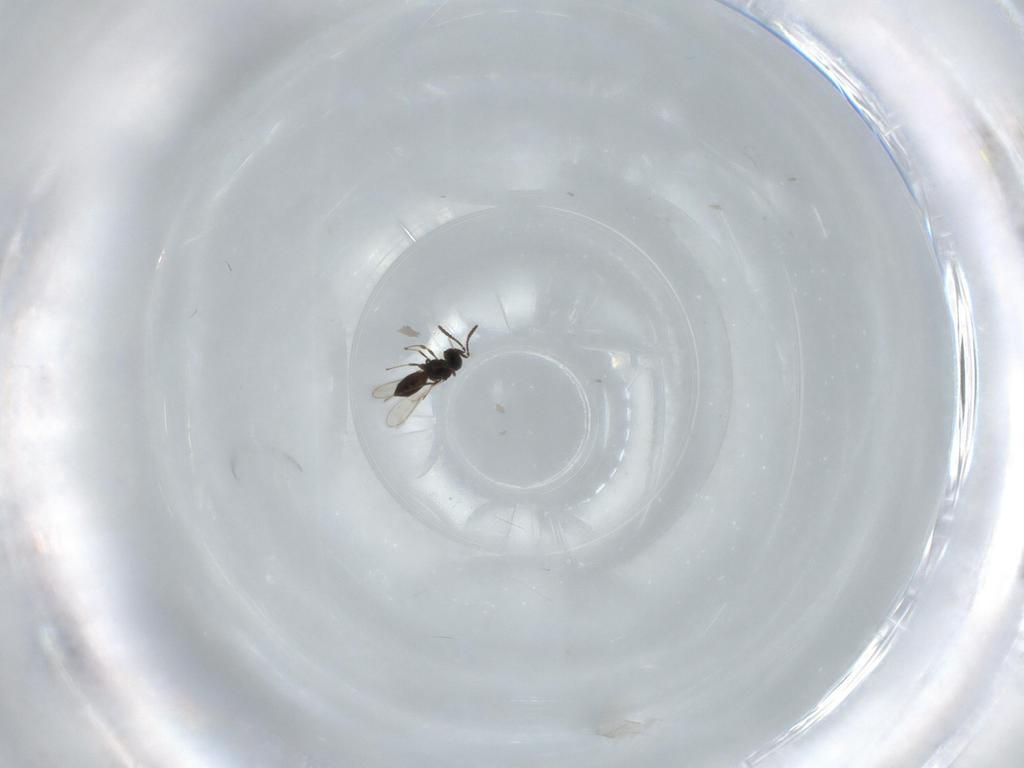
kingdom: Animalia
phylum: Arthropoda
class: Insecta
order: Hymenoptera
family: Scelionidae
